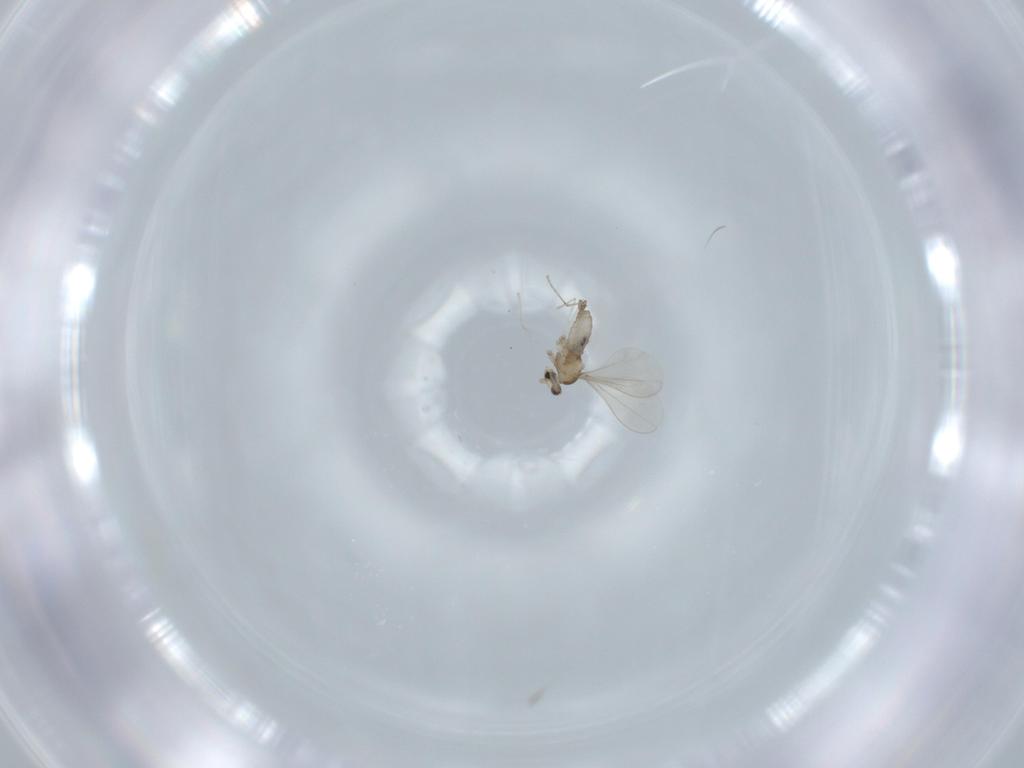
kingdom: Animalia
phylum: Arthropoda
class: Insecta
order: Diptera
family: Cecidomyiidae
